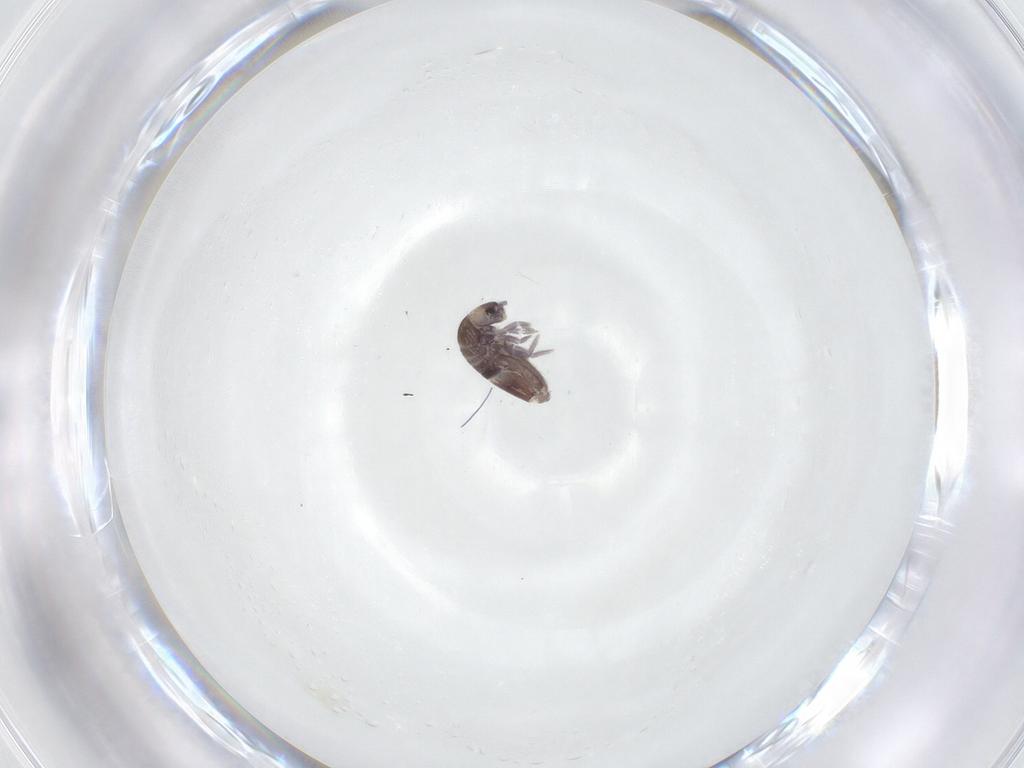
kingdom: Animalia
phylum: Arthropoda
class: Collembola
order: Entomobryomorpha
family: Entomobryidae
